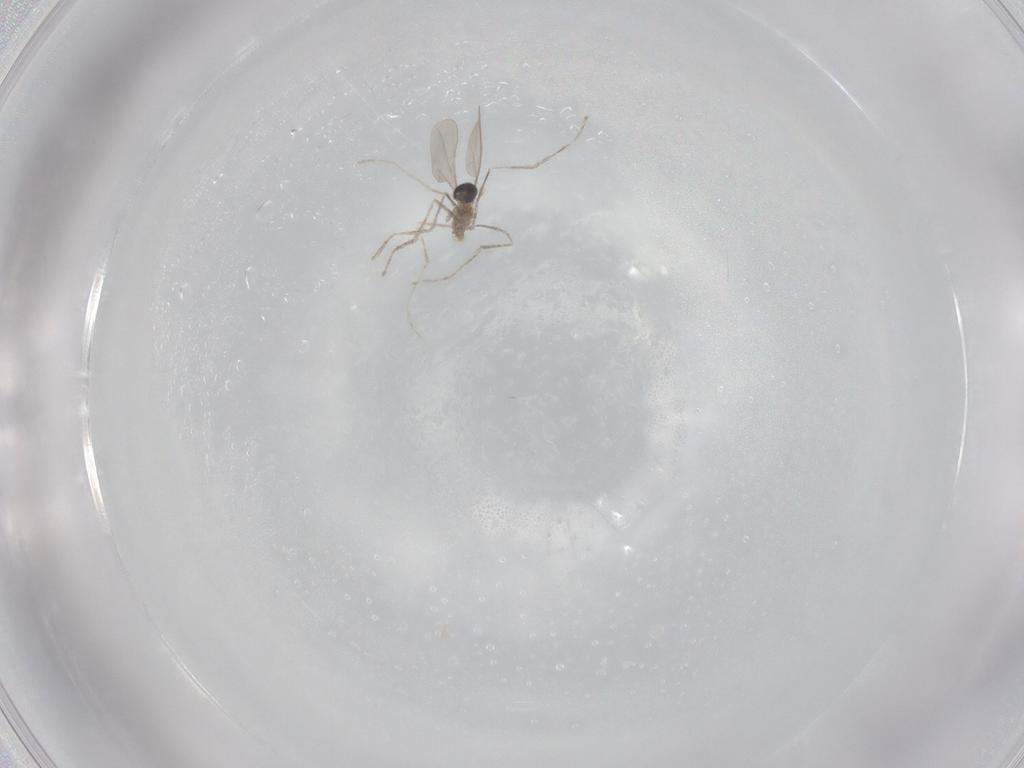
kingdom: Animalia
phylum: Arthropoda
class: Insecta
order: Diptera
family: Cecidomyiidae
